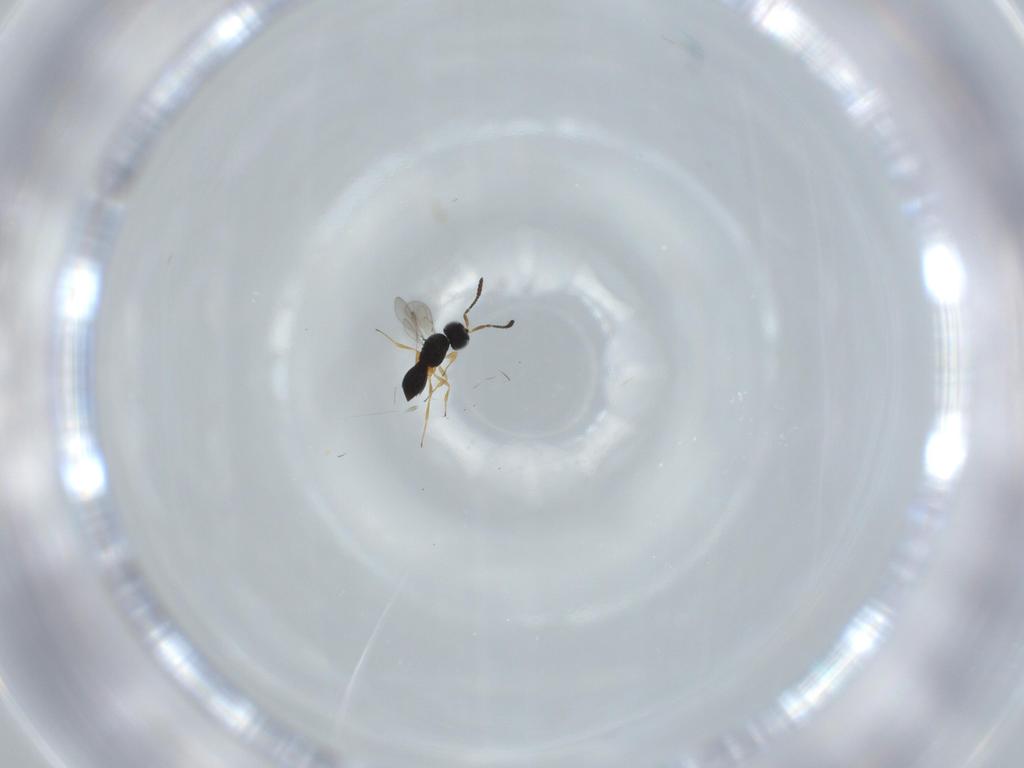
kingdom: Animalia
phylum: Arthropoda
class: Insecta
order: Hymenoptera
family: Scelionidae
